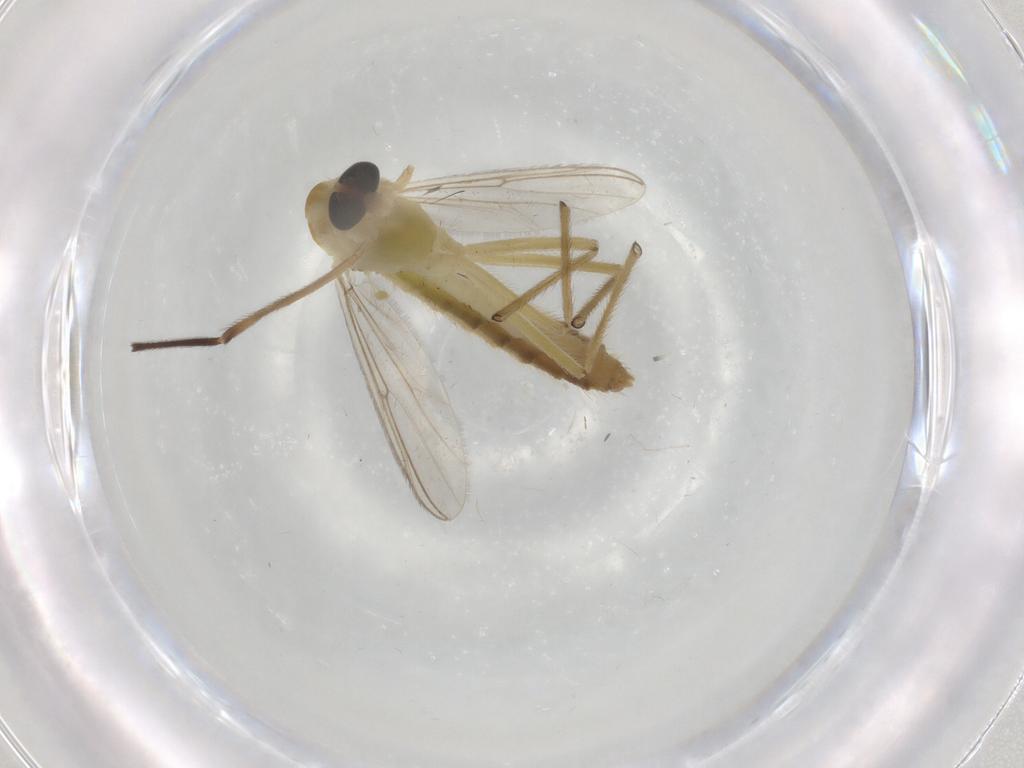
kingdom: Animalia
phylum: Arthropoda
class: Insecta
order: Diptera
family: Chironomidae
